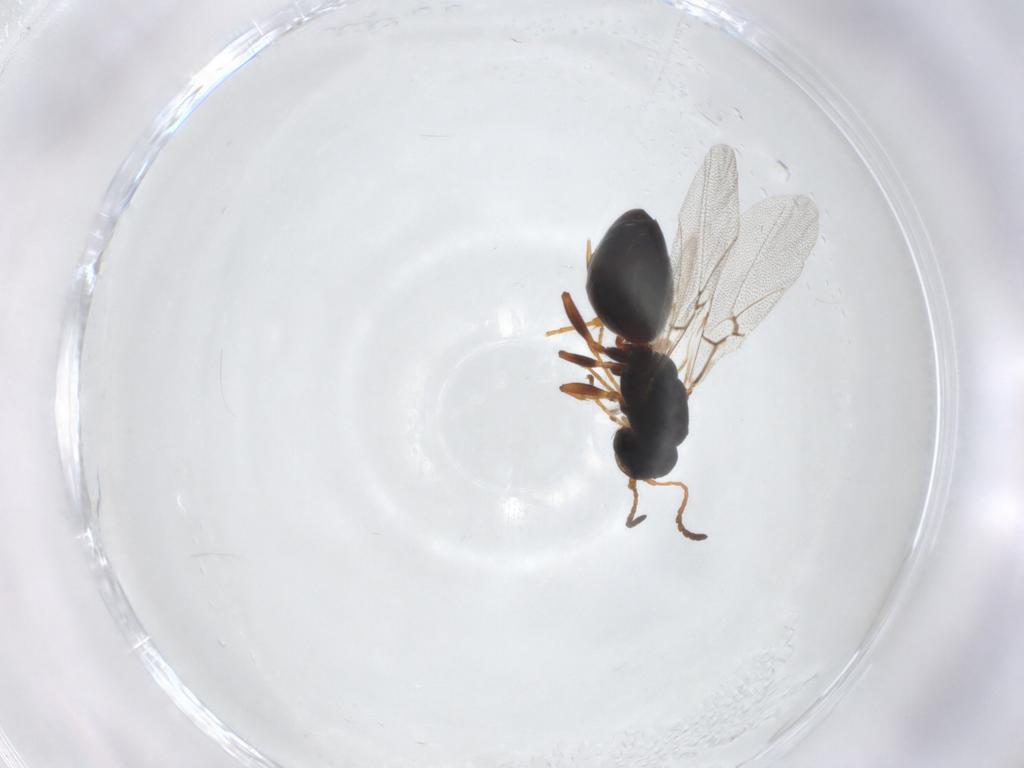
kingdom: Animalia
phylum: Arthropoda
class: Insecta
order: Hymenoptera
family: Cynipidae
